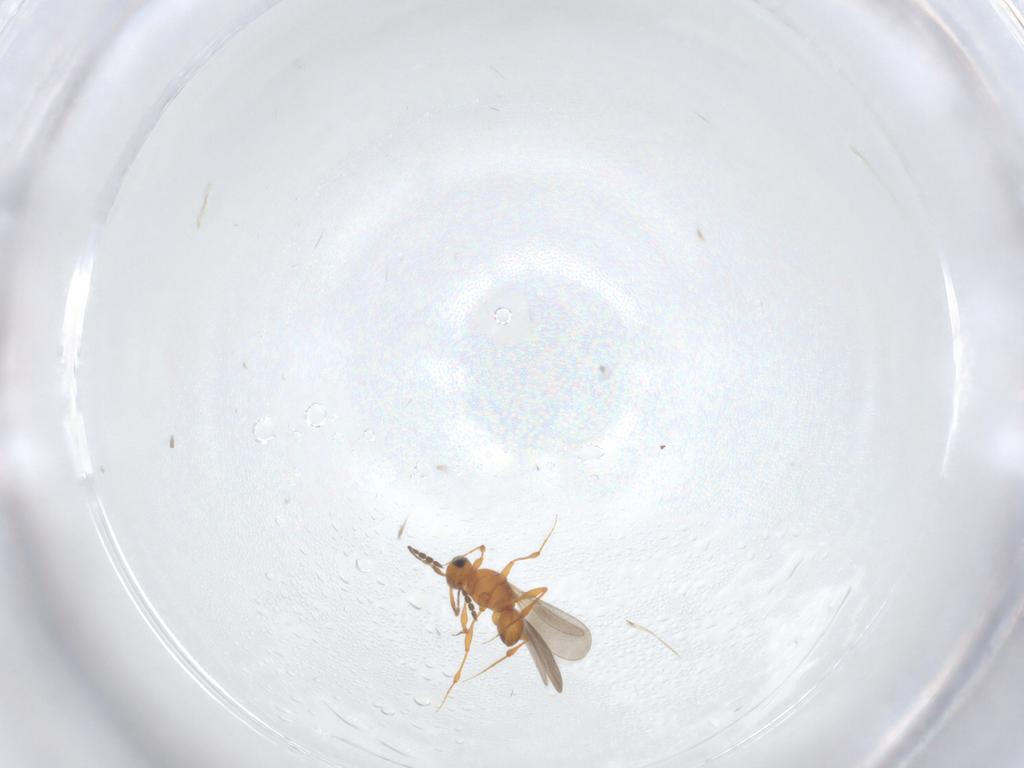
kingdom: Animalia
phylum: Arthropoda
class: Insecta
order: Hymenoptera
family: Platygastridae
